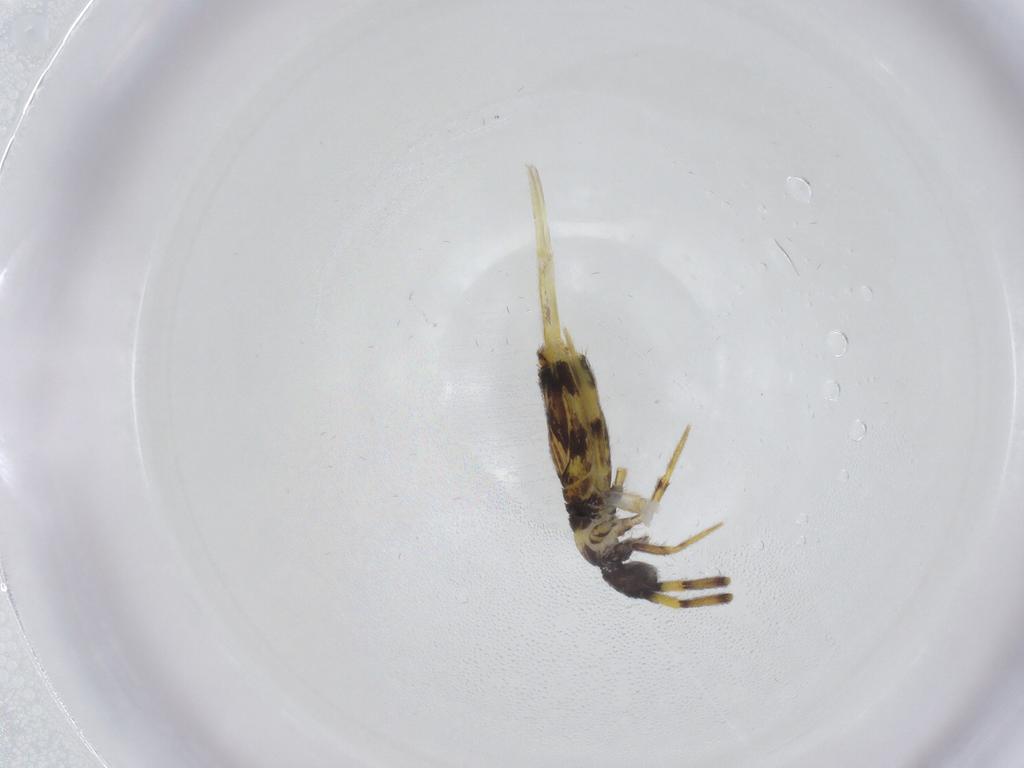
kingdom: Animalia
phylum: Arthropoda
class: Collembola
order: Entomobryomorpha
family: Entomobryidae
